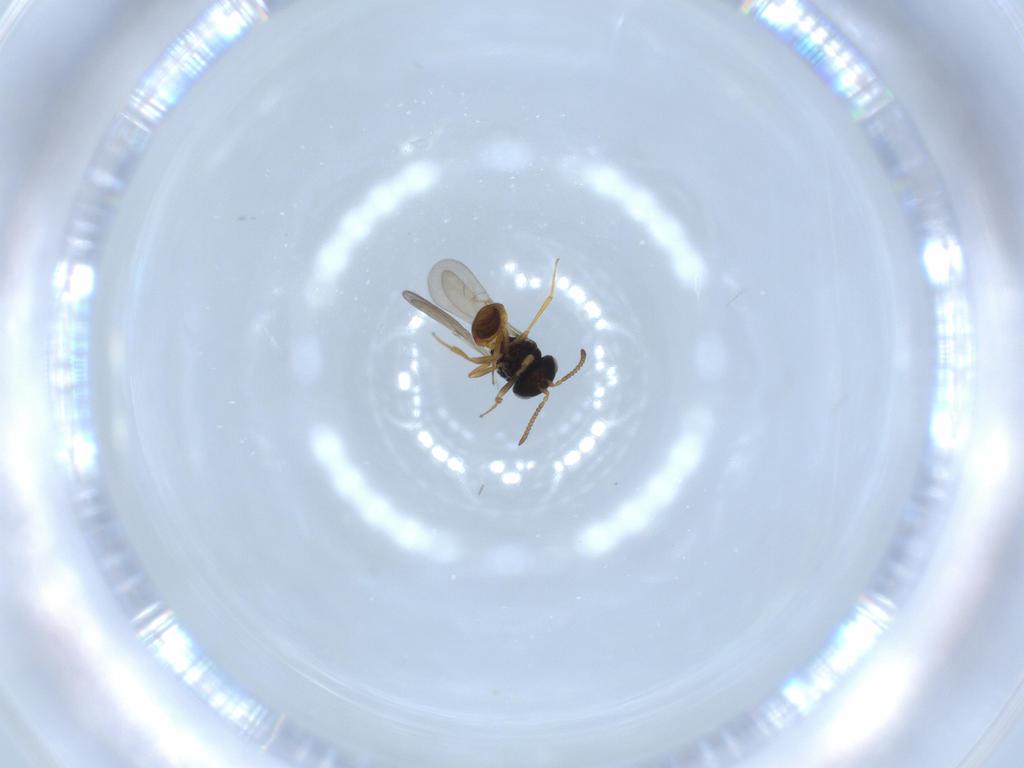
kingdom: Animalia
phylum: Arthropoda
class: Insecta
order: Hymenoptera
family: Scelionidae
